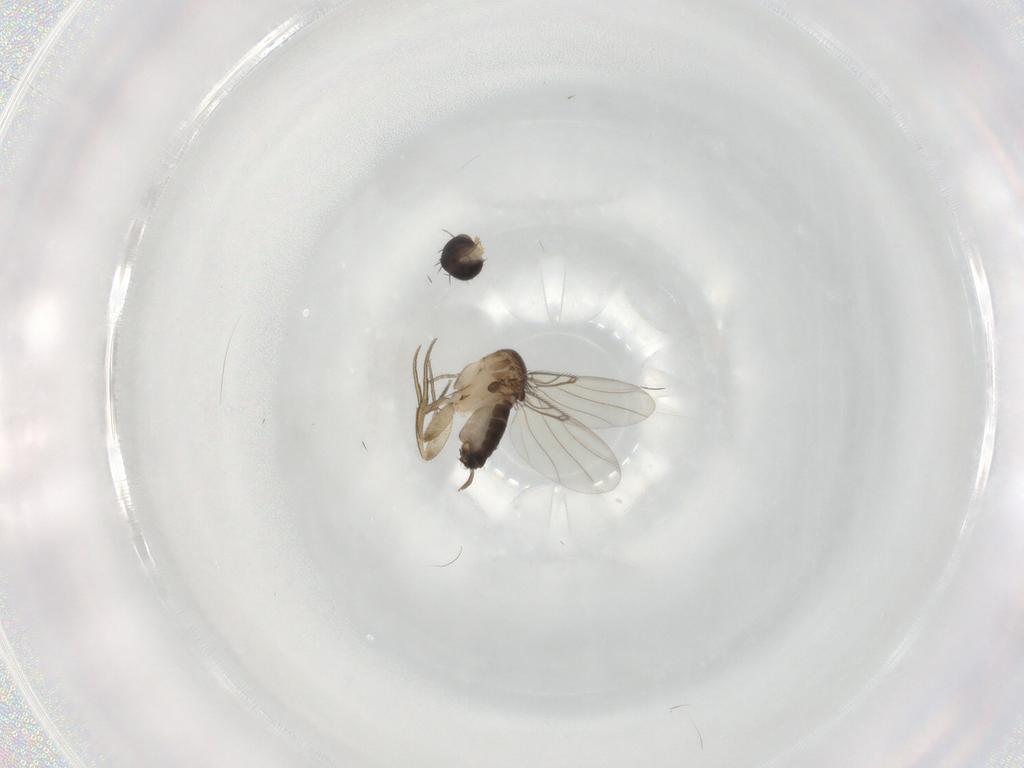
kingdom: Animalia
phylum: Arthropoda
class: Insecta
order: Diptera
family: Phoridae
